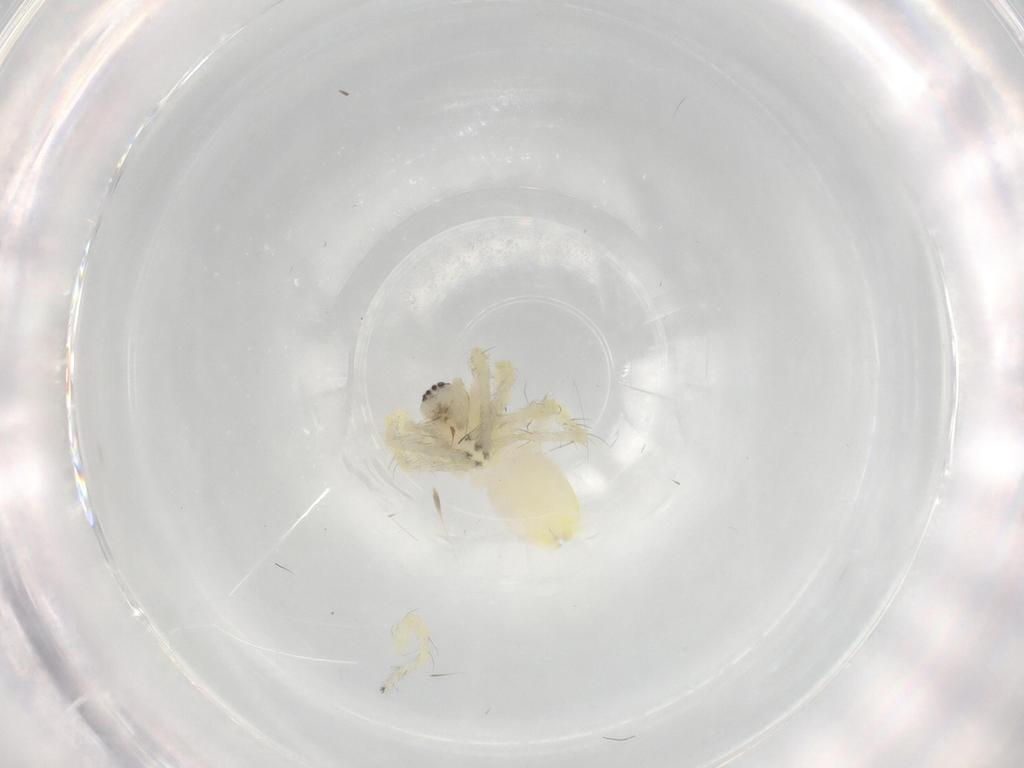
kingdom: Animalia
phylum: Arthropoda
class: Arachnida
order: Araneae
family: Anyphaenidae
